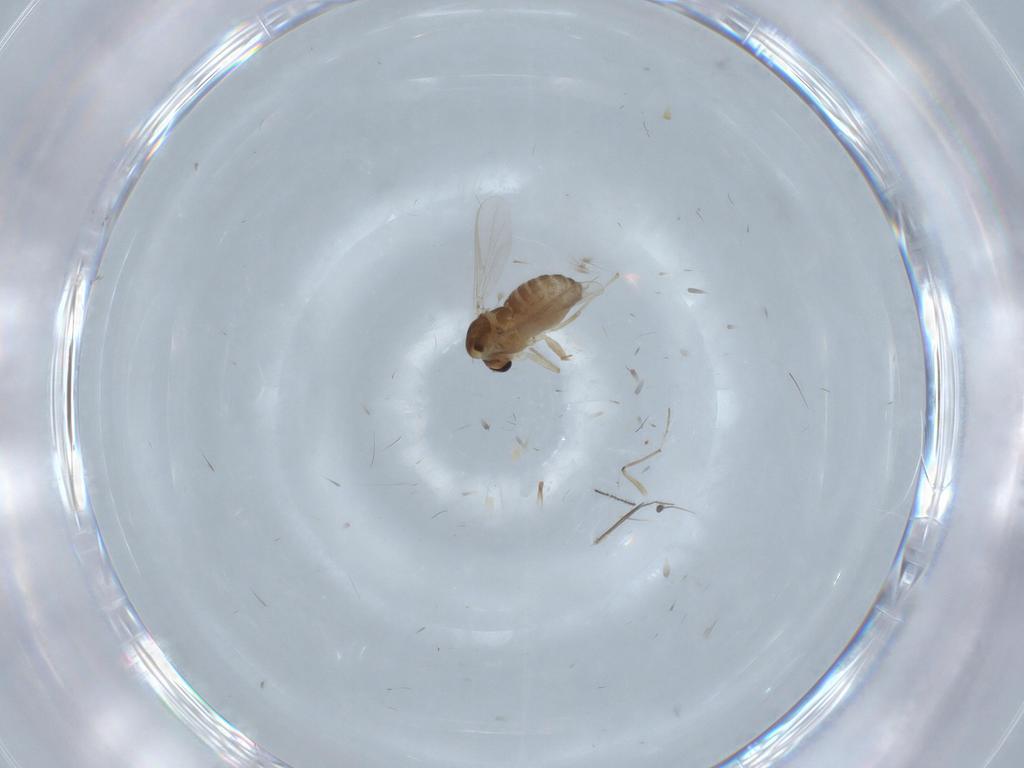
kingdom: Animalia
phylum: Arthropoda
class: Insecta
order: Diptera
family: Chironomidae
